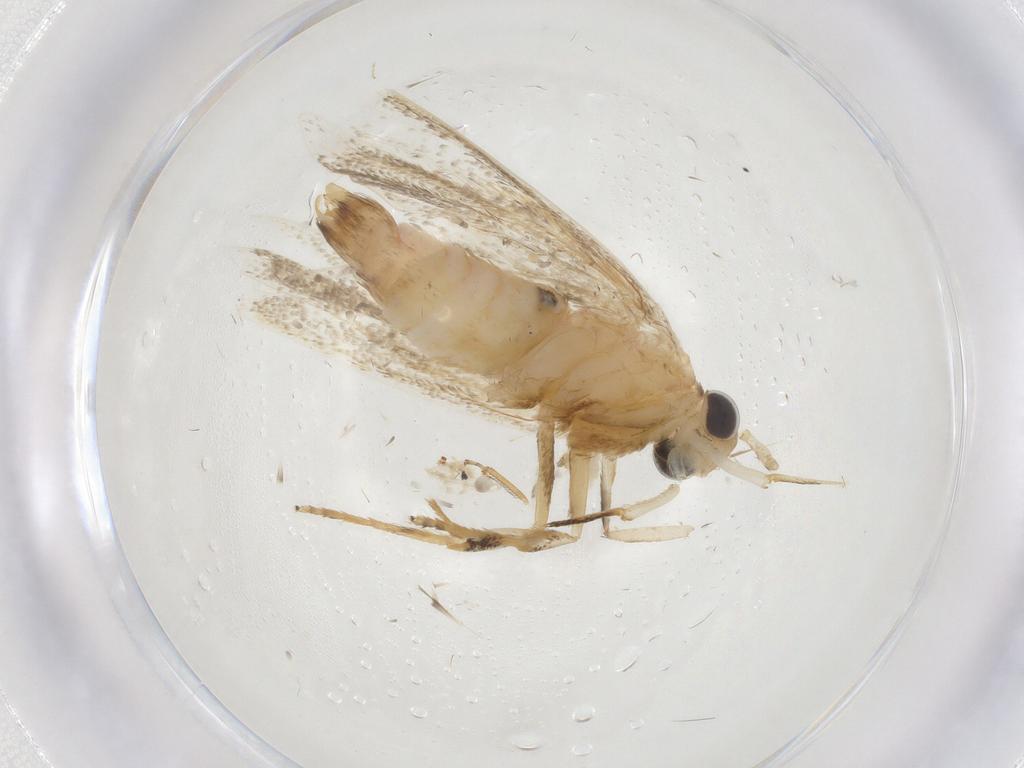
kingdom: Animalia
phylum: Arthropoda
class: Insecta
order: Lepidoptera
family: Lecithoceridae
